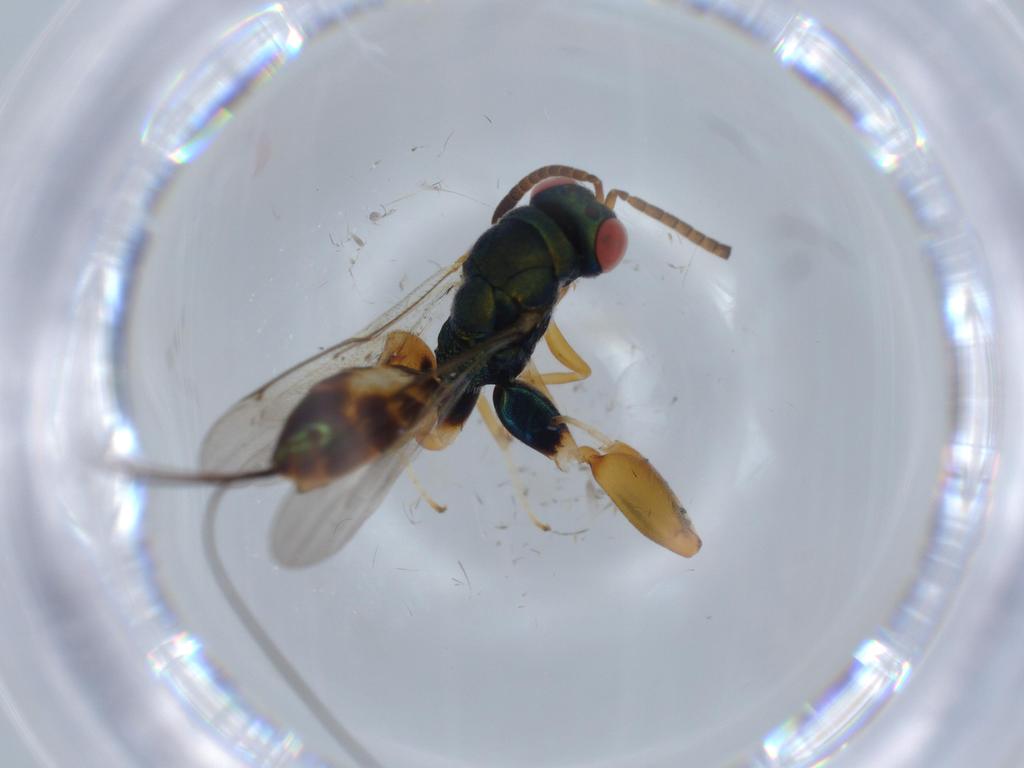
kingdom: Animalia
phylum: Arthropoda
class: Insecta
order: Hymenoptera
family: Torymidae
